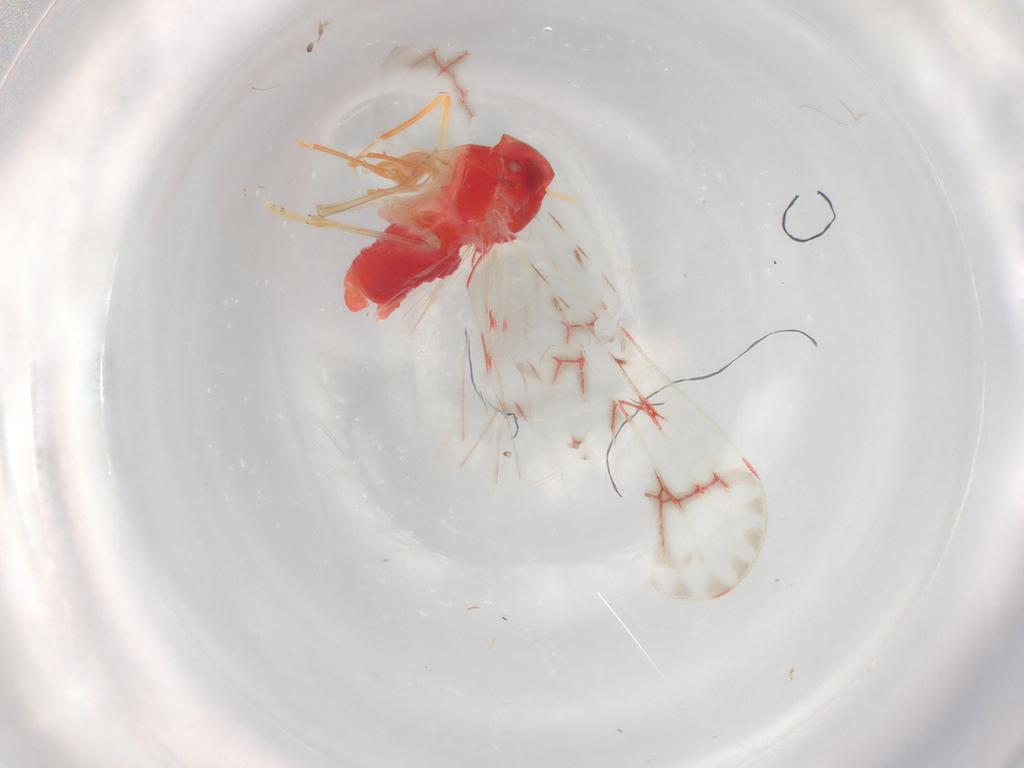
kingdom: Animalia
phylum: Arthropoda
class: Insecta
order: Hemiptera
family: Derbidae
